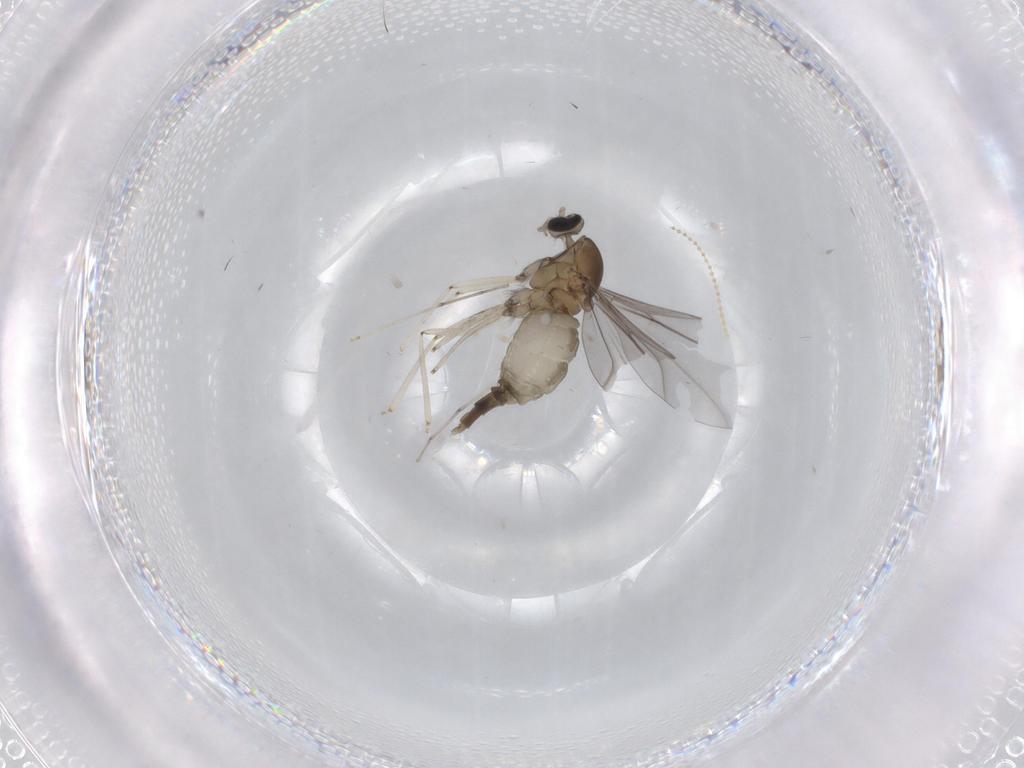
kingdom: Animalia
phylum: Arthropoda
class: Insecta
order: Diptera
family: Cecidomyiidae
